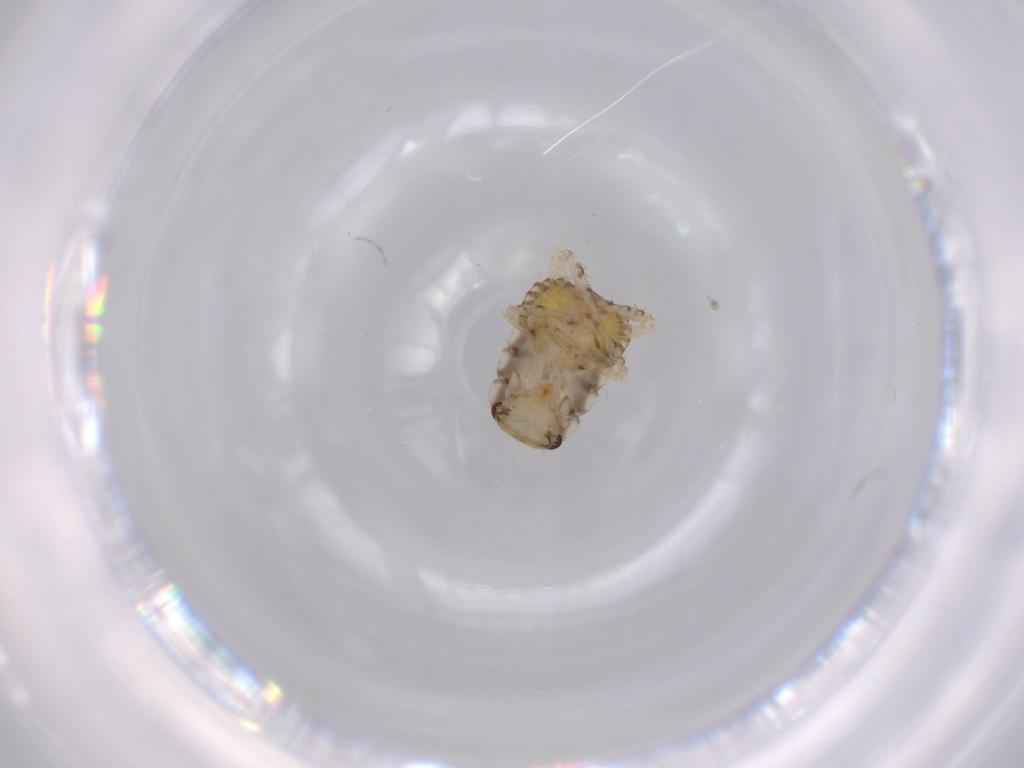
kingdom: Animalia
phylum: Arthropoda
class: Insecta
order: Blattodea
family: Ectobiidae
